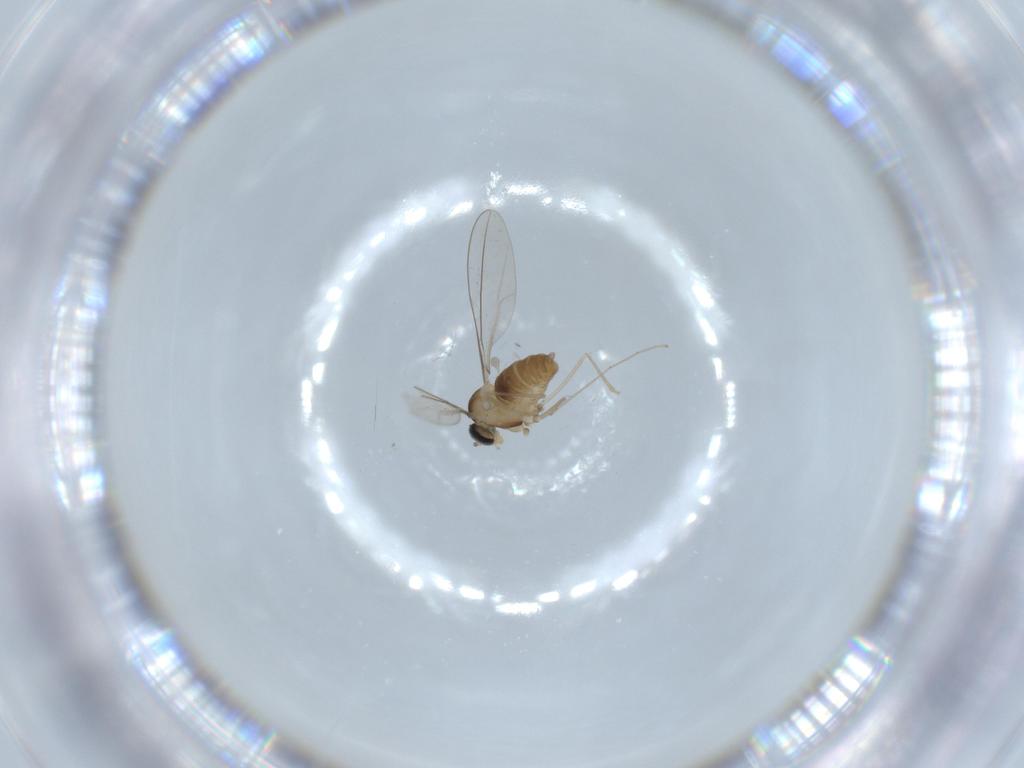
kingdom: Animalia
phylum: Arthropoda
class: Insecta
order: Diptera
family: Cecidomyiidae
